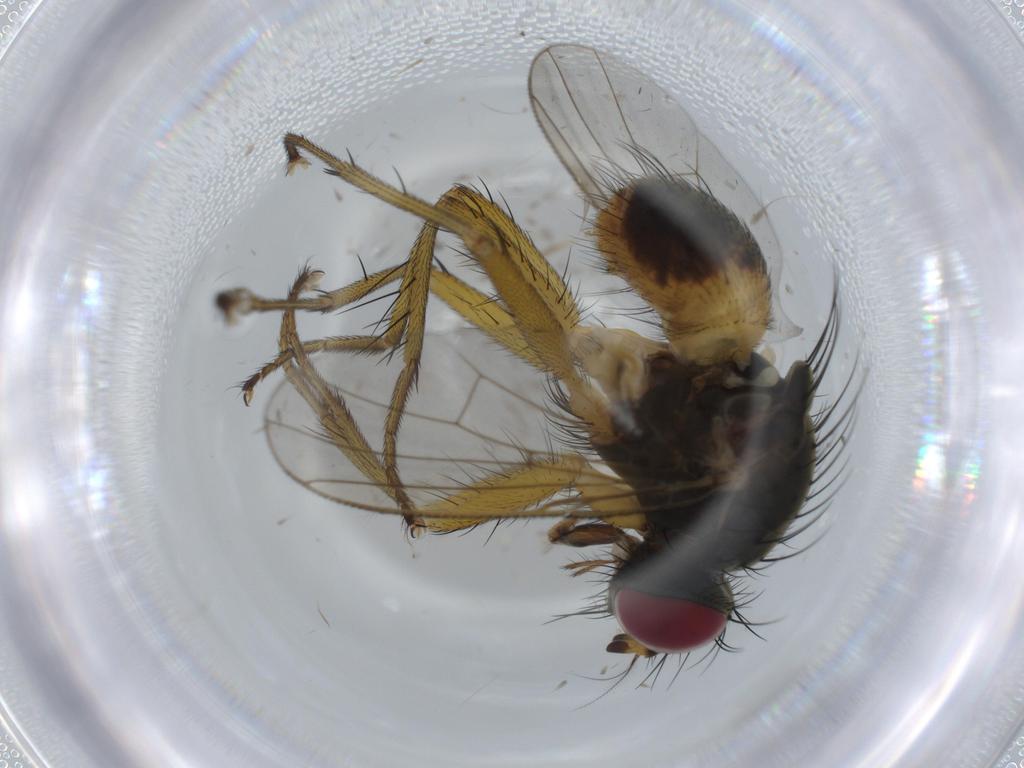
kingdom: Animalia
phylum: Arthropoda
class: Insecta
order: Diptera
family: Muscidae
